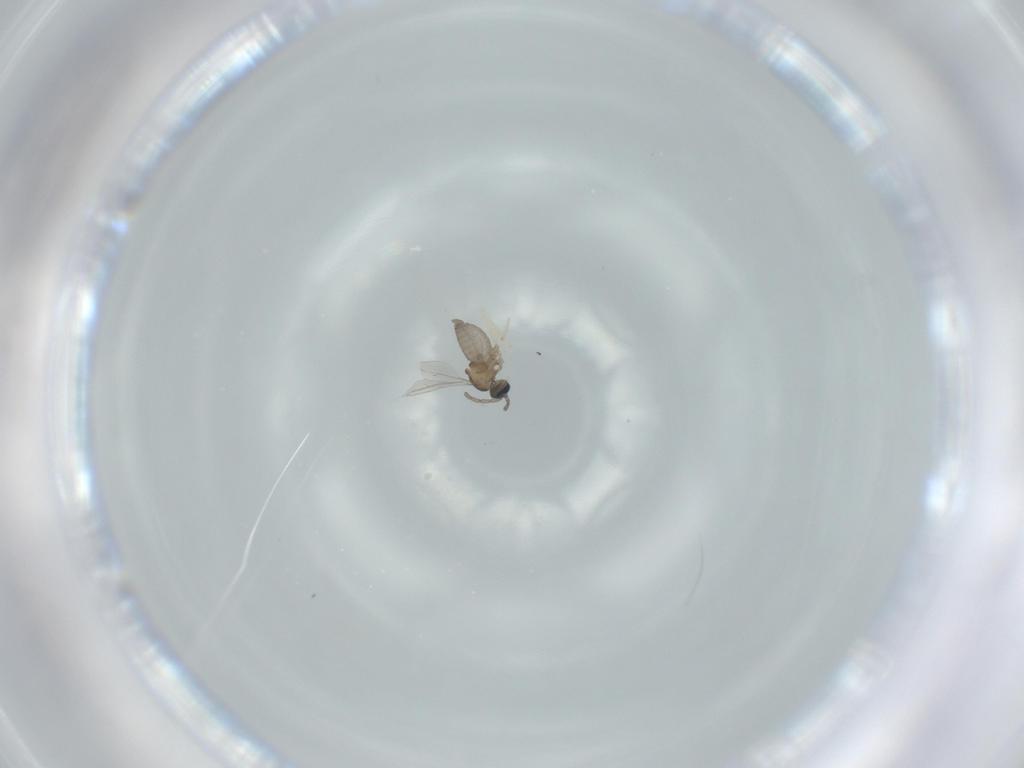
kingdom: Animalia
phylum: Arthropoda
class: Insecta
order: Diptera
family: Cecidomyiidae
